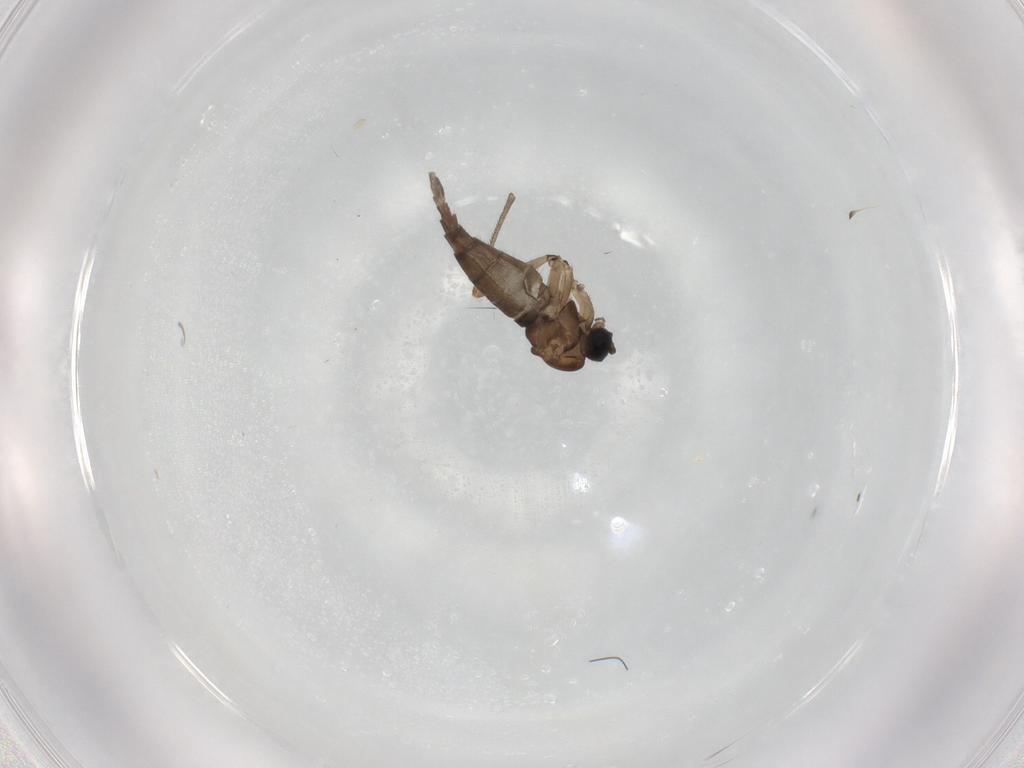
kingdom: Animalia
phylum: Arthropoda
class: Insecta
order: Diptera
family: Sciaridae
